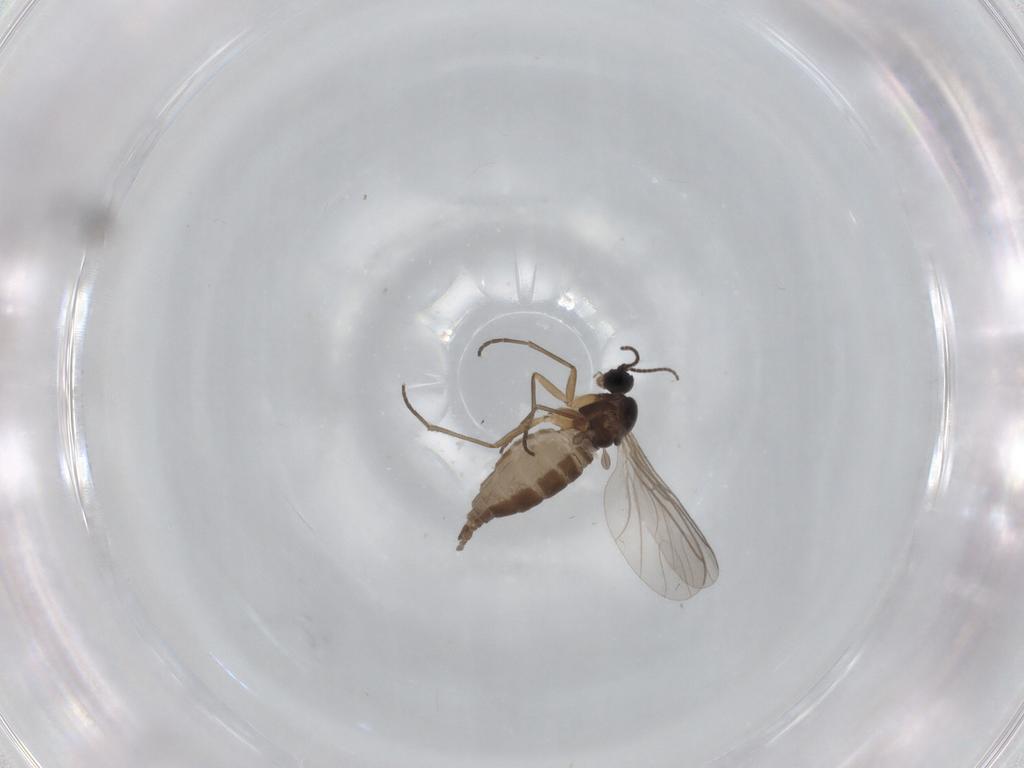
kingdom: Animalia
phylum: Arthropoda
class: Insecta
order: Diptera
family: Ceratopogonidae
